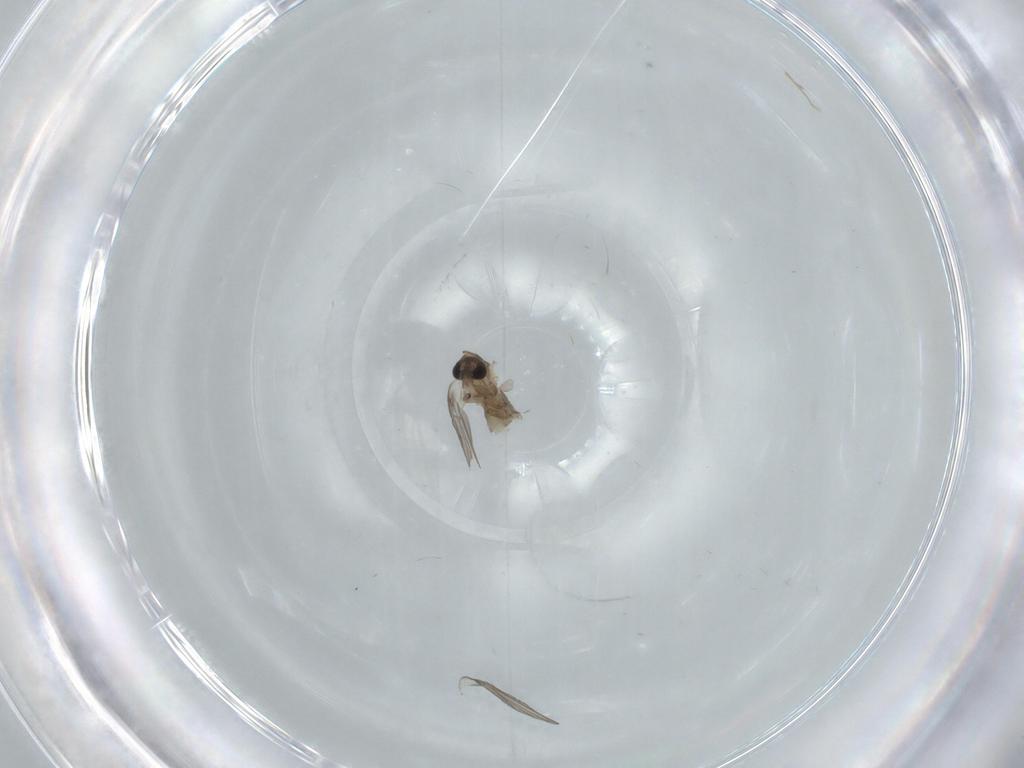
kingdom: Animalia
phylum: Arthropoda
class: Insecta
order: Diptera
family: Psychodidae
